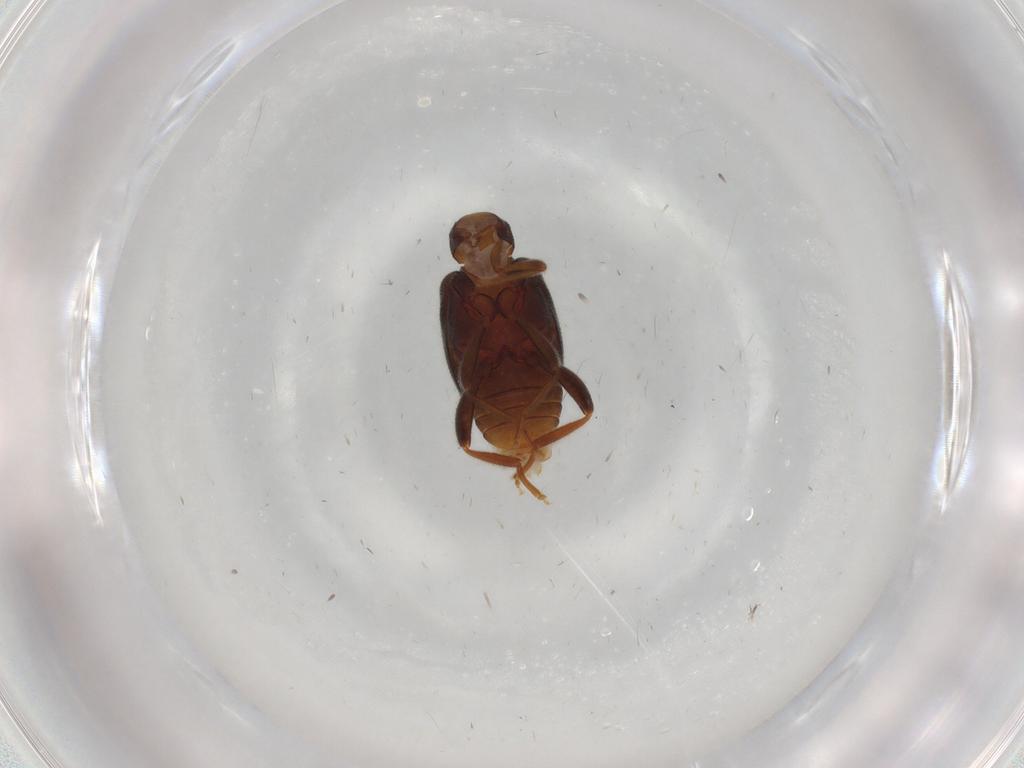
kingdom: Animalia
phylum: Arthropoda
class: Insecta
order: Coleoptera
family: Aderidae
